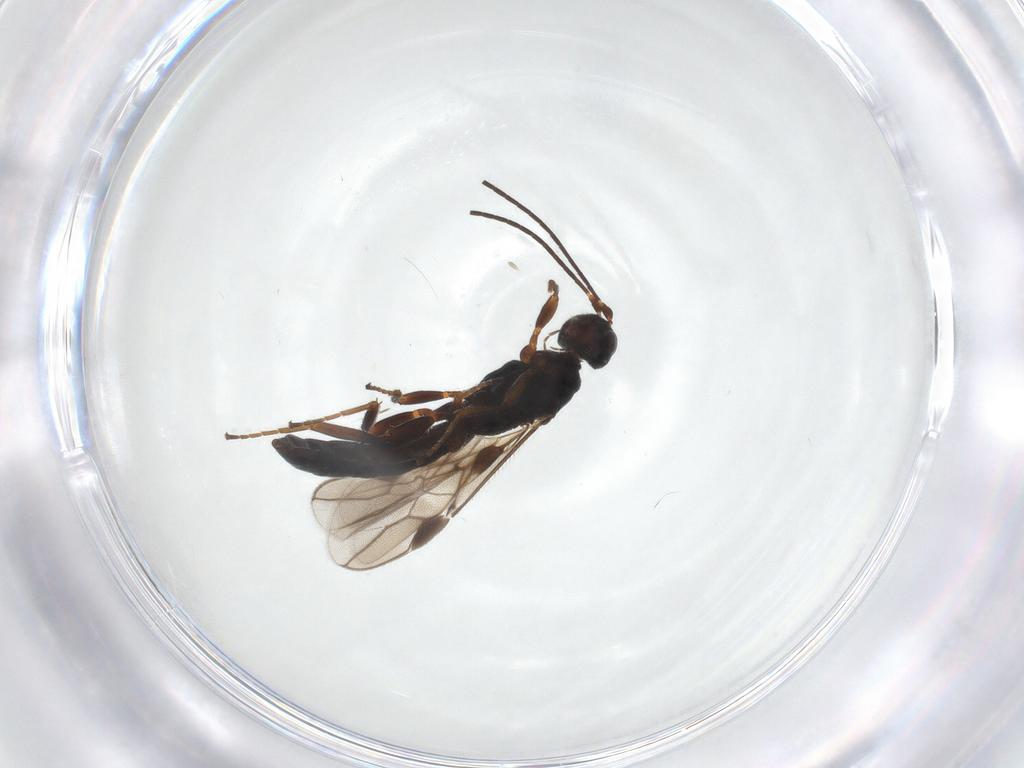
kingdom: Animalia
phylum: Arthropoda
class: Insecta
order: Hymenoptera
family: Braconidae
